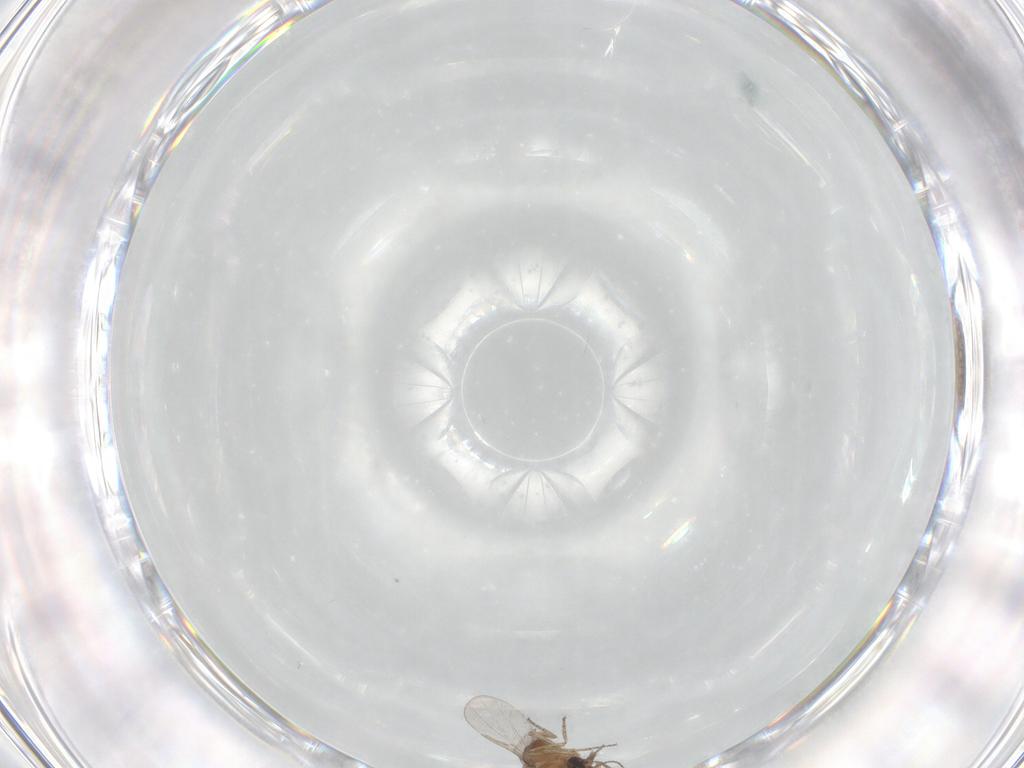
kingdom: Animalia
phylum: Arthropoda
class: Insecta
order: Diptera
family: Ceratopogonidae
